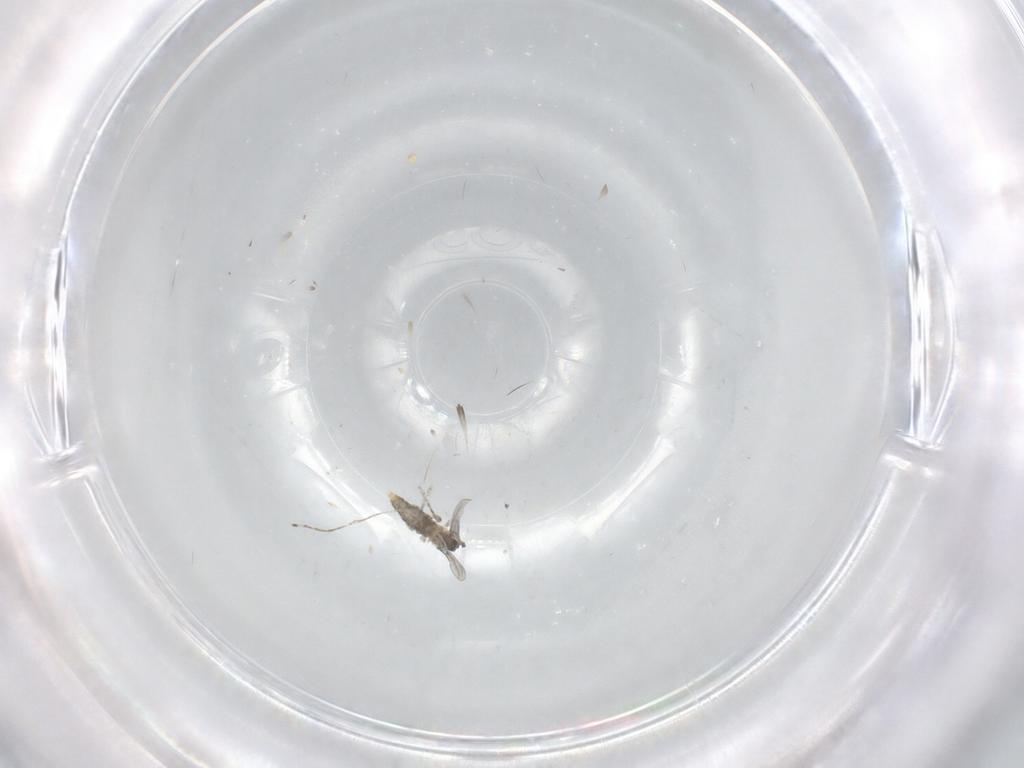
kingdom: Animalia
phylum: Arthropoda
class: Insecta
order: Diptera
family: Cecidomyiidae
